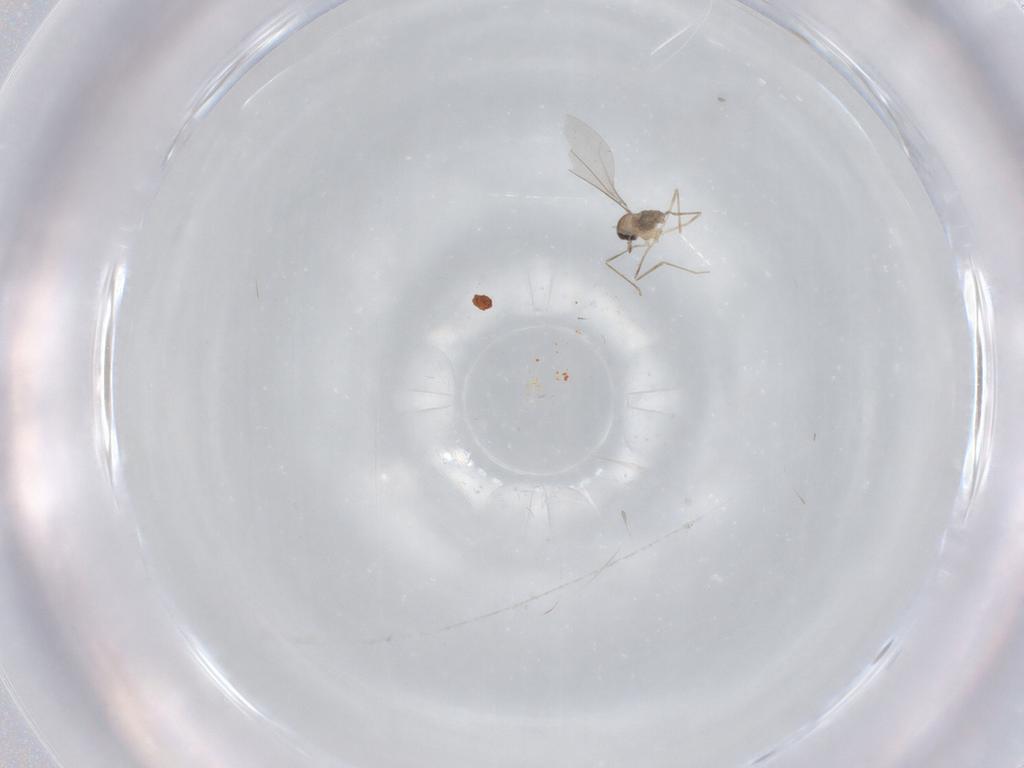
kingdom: Animalia
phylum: Arthropoda
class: Insecta
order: Diptera
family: Cecidomyiidae
